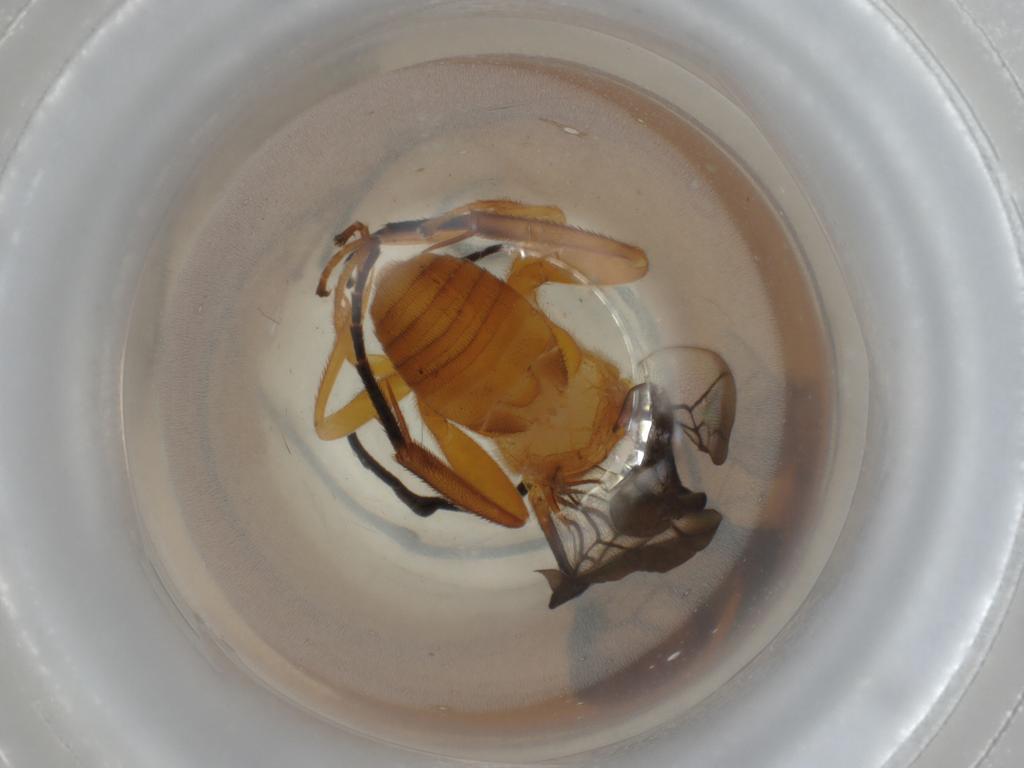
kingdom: Animalia
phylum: Arthropoda
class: Insecta
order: Hymenoptera
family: Braconidae
